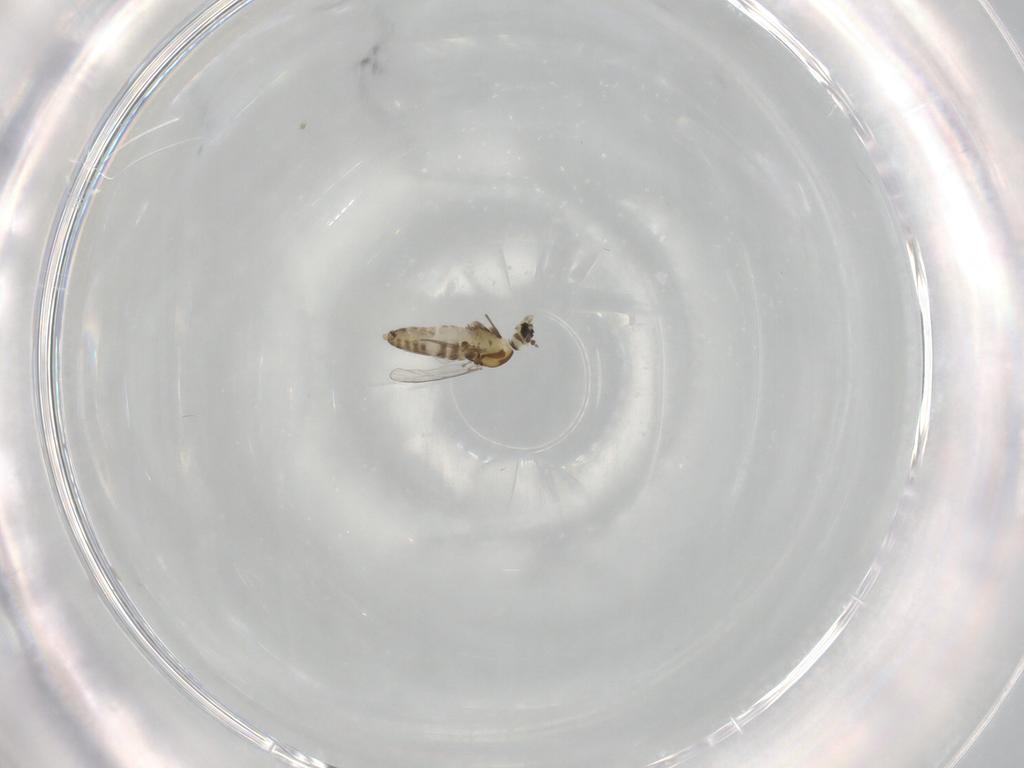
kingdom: Animalia
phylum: Arthropoda
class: Insecta
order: Diptera
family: Chironomidae
